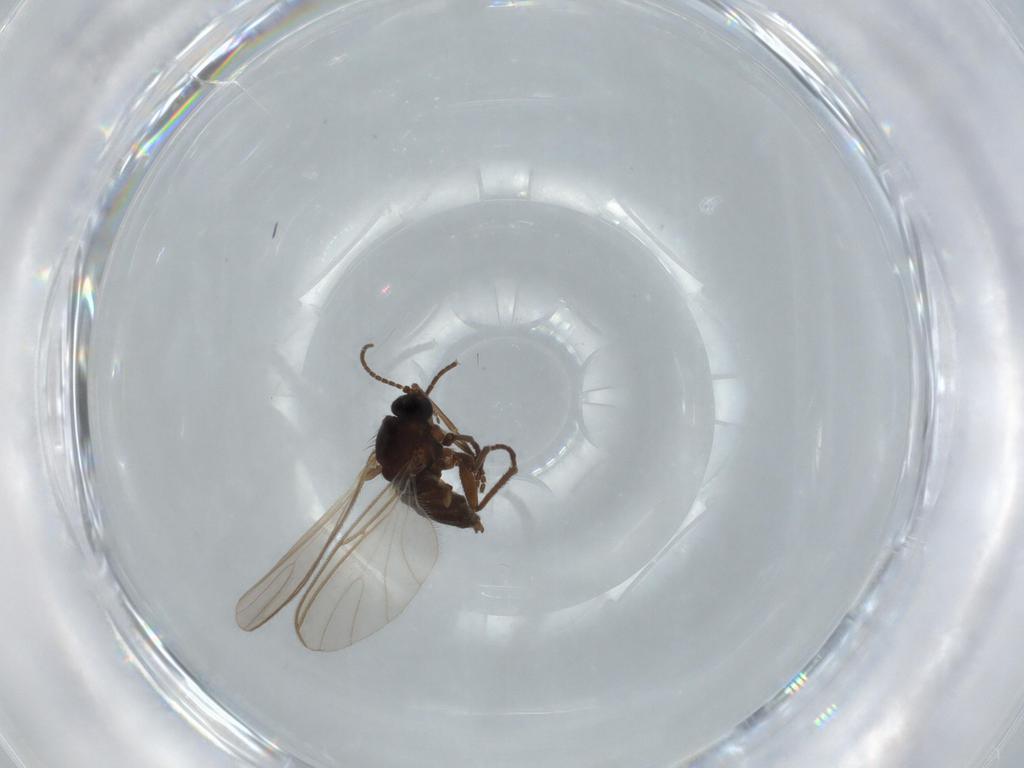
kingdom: Animalia
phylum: Arthropoda
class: Insecta
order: Diptera
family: Sciaridae
